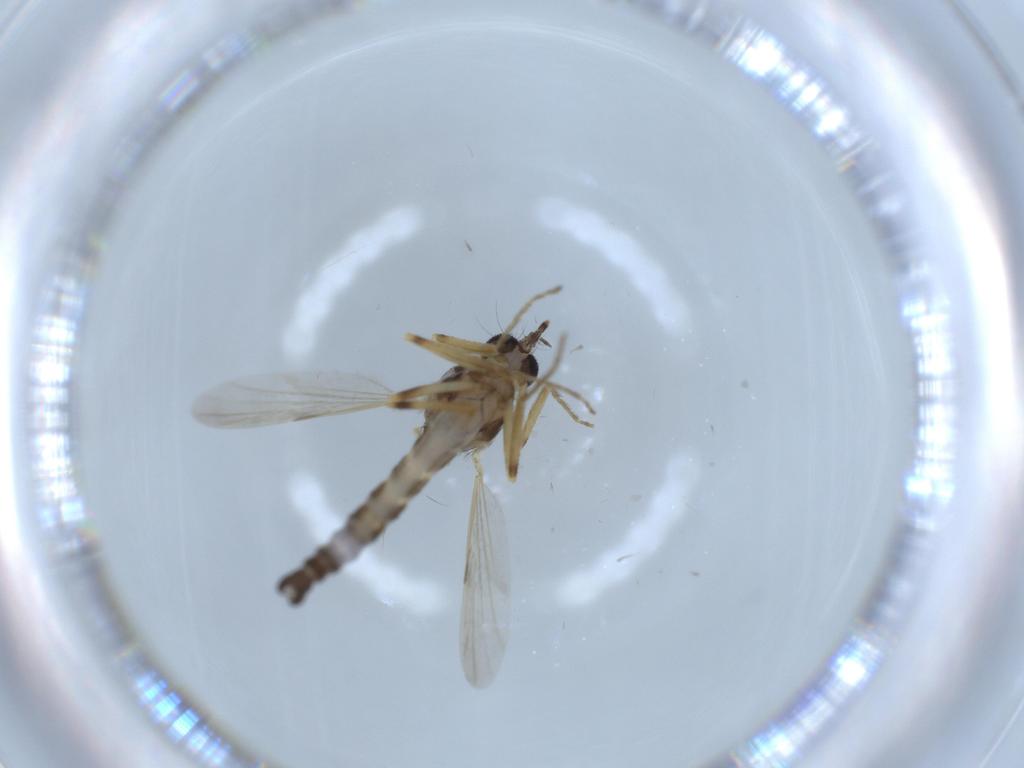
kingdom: Animalia
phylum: Arthropoda
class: Insecta
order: Diptera
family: Ceratopogonidae
